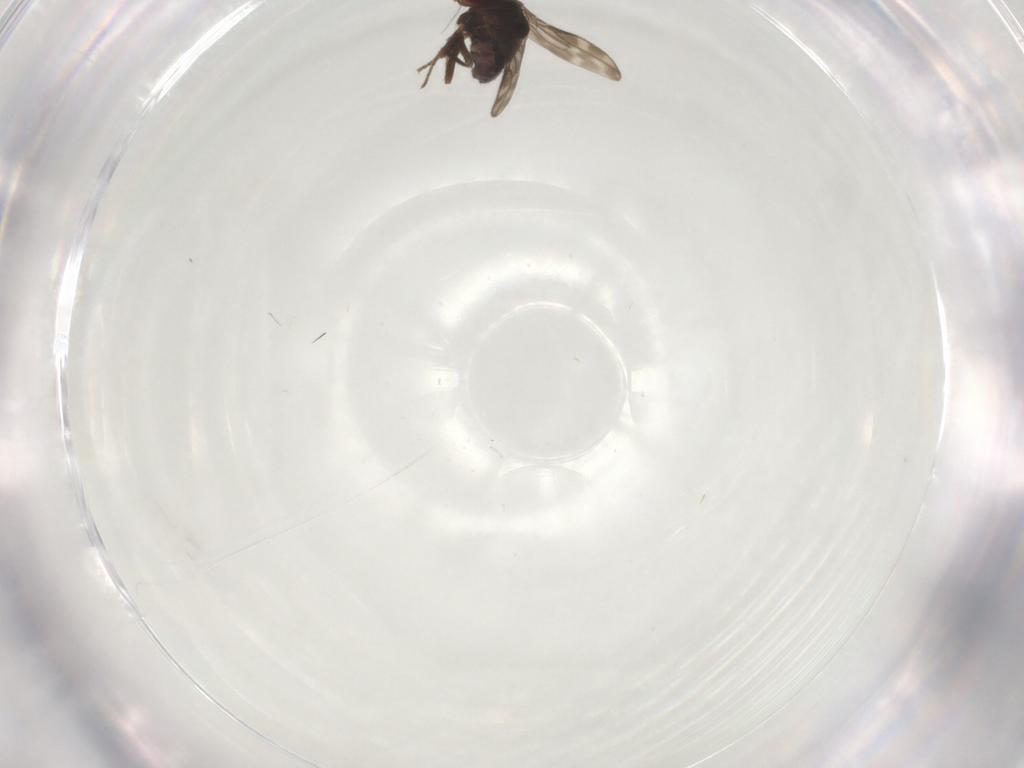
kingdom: Animalia
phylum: Arthropoda
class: Insecta
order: Diptera
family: Sphaeroceridae
